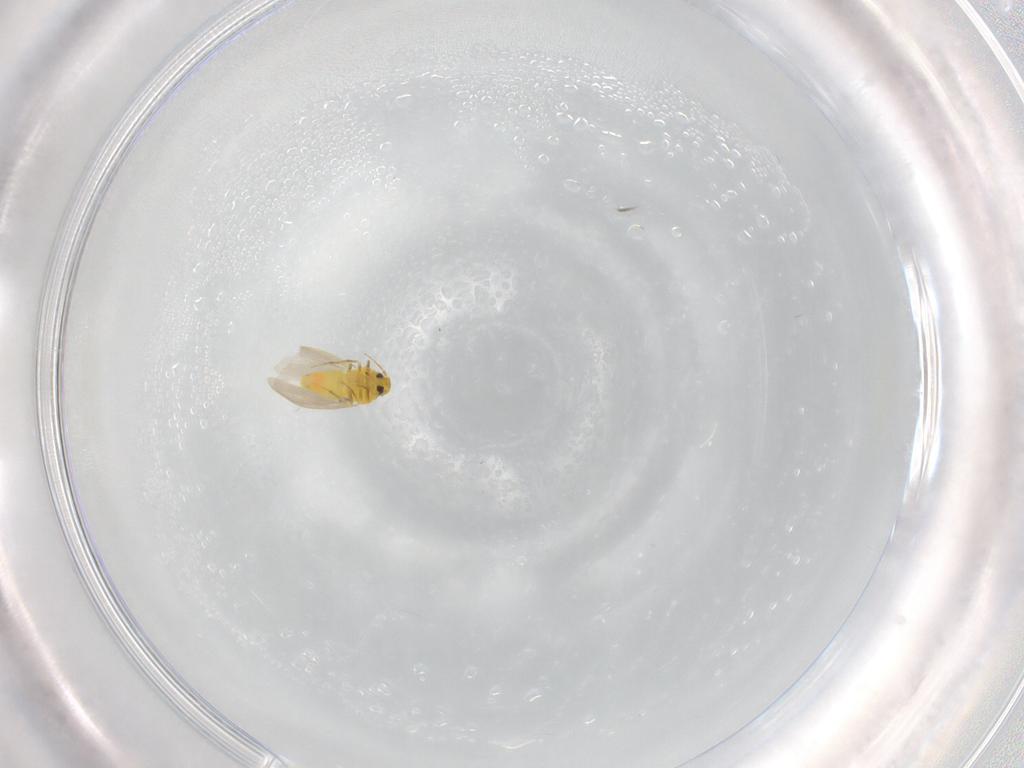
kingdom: Animalia
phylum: Arthropoda
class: Insecta
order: Hemiptera
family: Aleyrodidae
